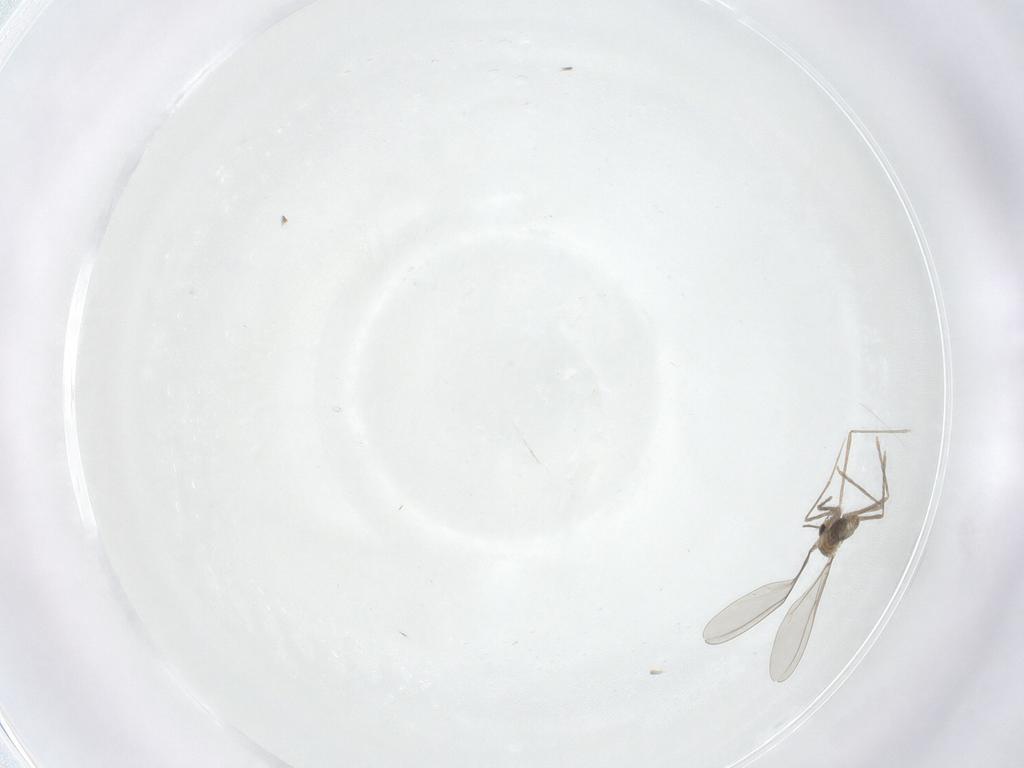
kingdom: Animalia
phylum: Arthropoda
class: Insecta
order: Diptera
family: Cecidomyiidae
